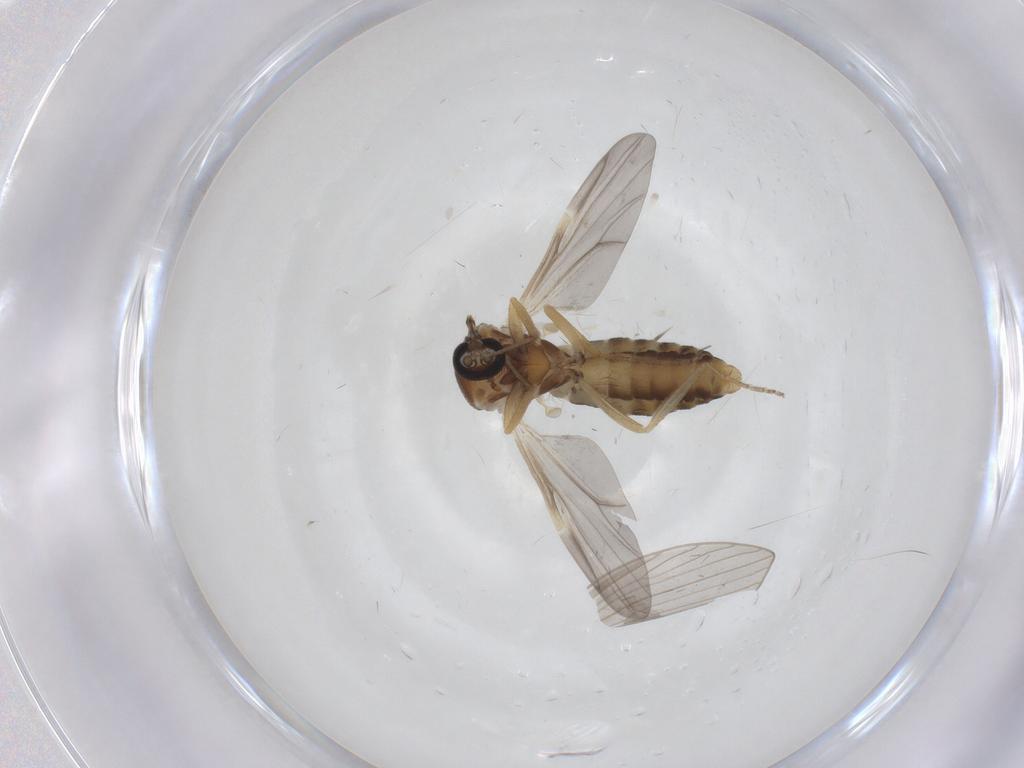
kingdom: Animalia
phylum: Arthropoda
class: Insecta
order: Diptera
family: Ceratopogonidae
